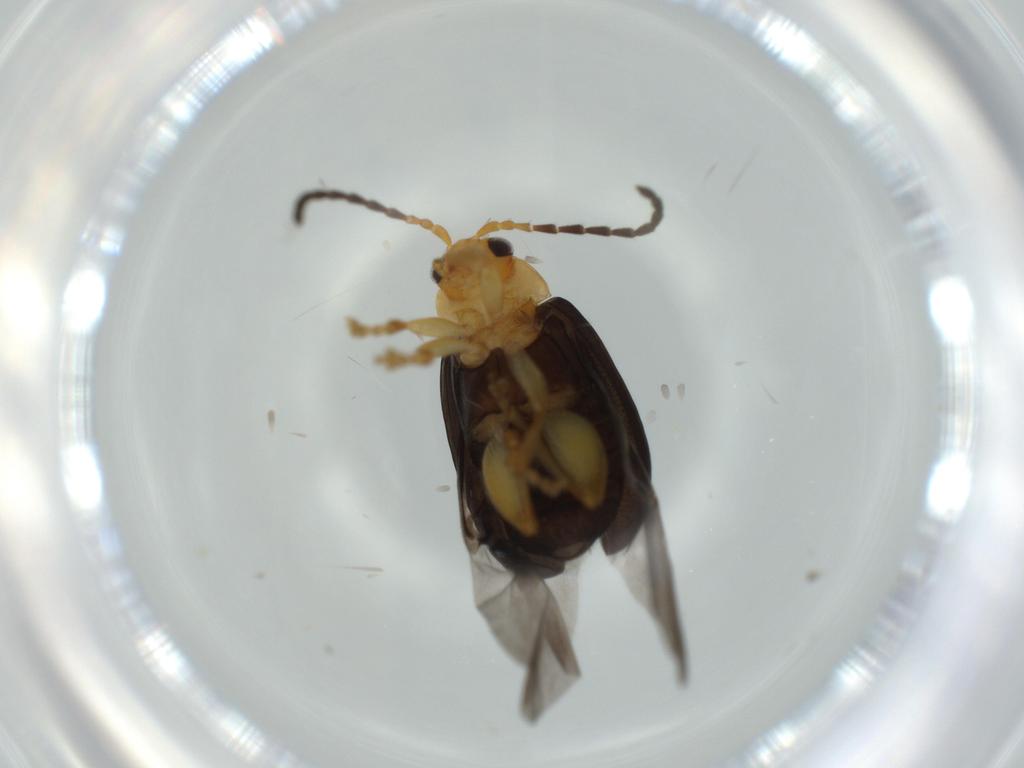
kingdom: Animalia
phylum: Arthropoda
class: Insecta
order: Coleoptera
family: Chrysomelidae
